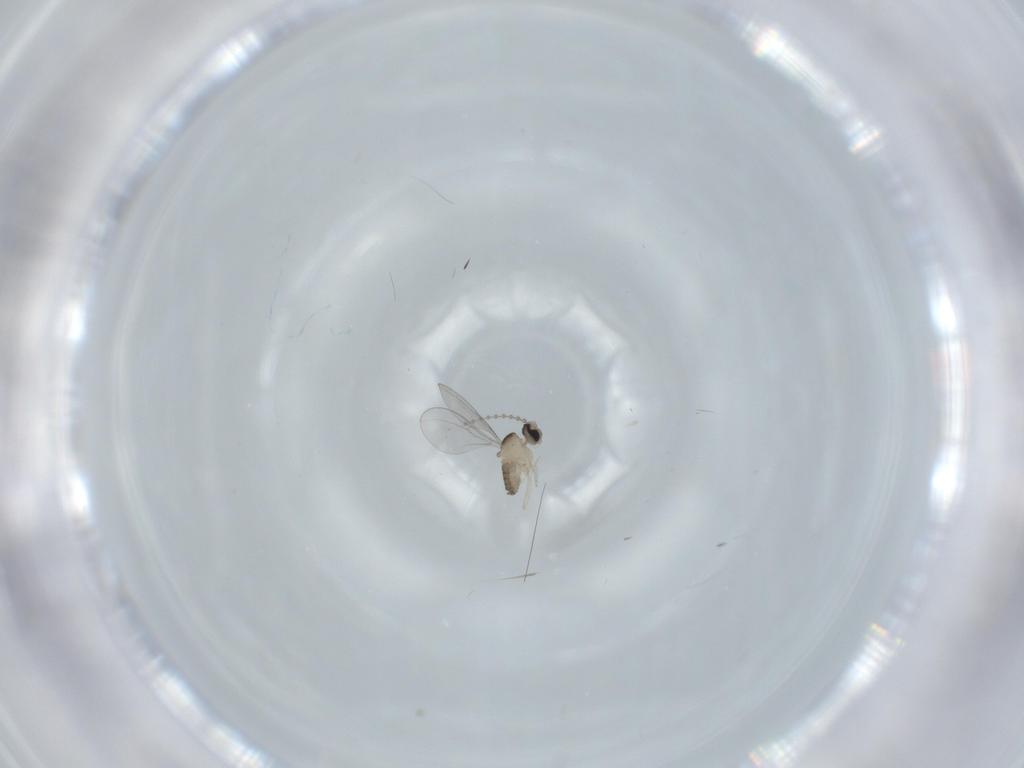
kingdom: Animalia
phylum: Arthropoda
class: Insecta
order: Diptera
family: Cecidomyiidae
